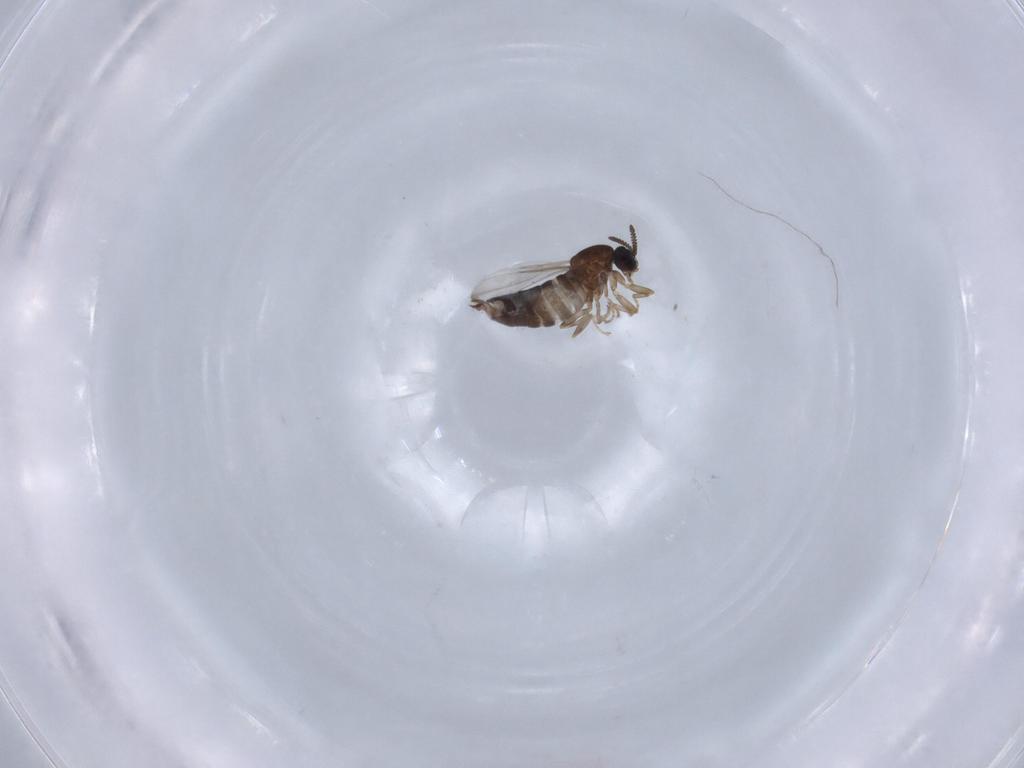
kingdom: Animalia
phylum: Arthropoda
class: Insecta
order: Diptera
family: Scatopsidae
